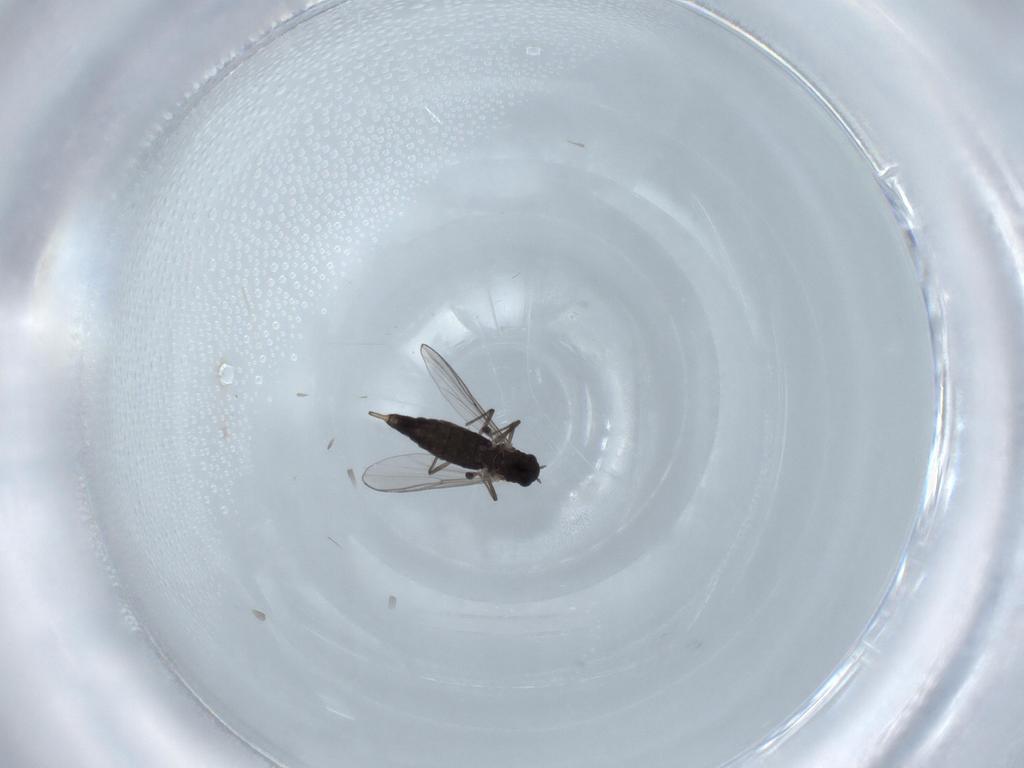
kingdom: Animalia
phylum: Arthropoda
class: Insecta
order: Diptera
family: Chironomidae
